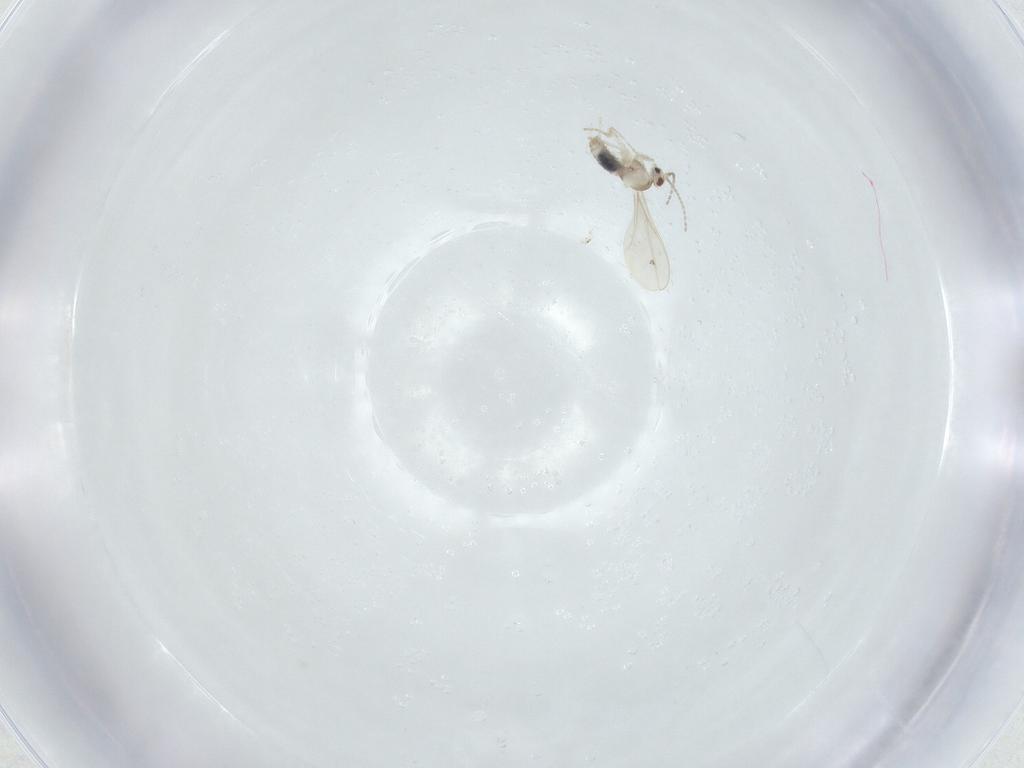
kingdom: Animalia
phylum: Arthropoda
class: Insecta
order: Diptera
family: Cecidomyiidae
